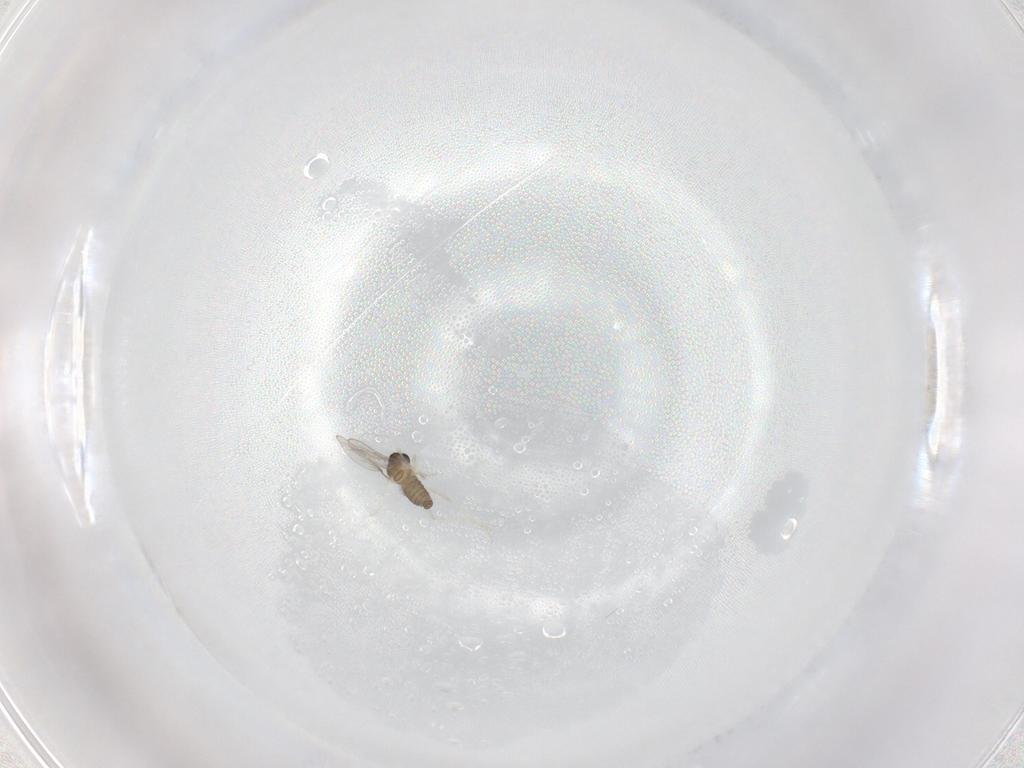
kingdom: Animalia
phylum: Arthropoda
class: Insecta
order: Diptera
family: Cecidomyiidae
